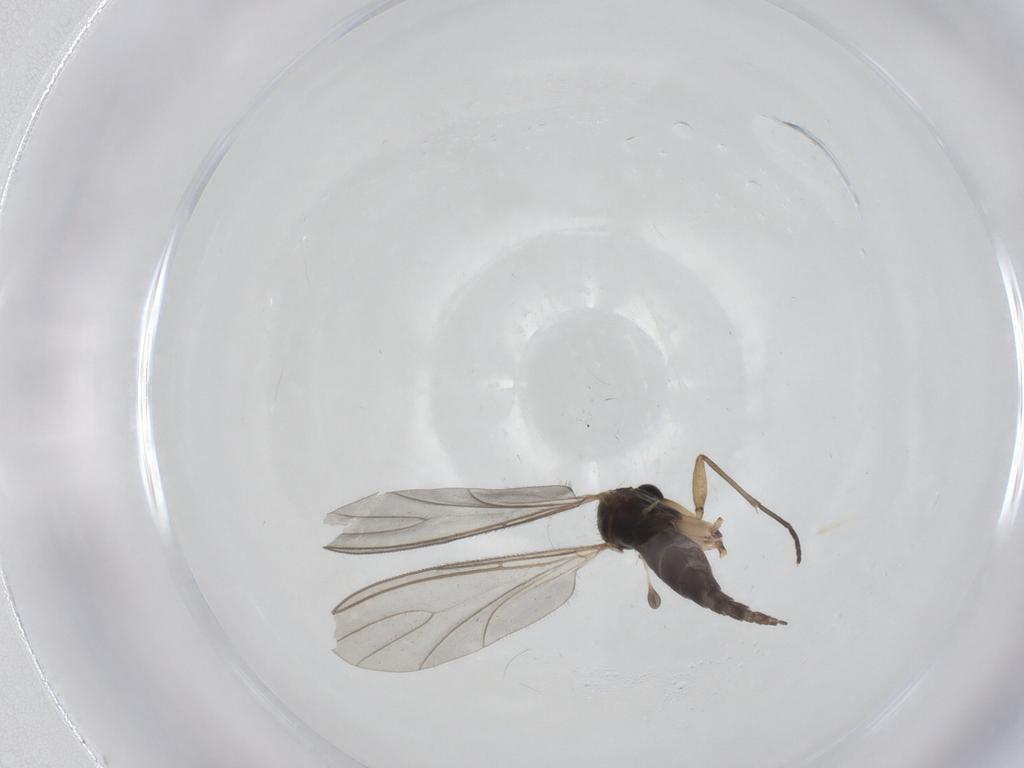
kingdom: Animalia
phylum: Arthropoda
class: Insecta
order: Diptera
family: Sciaridae
